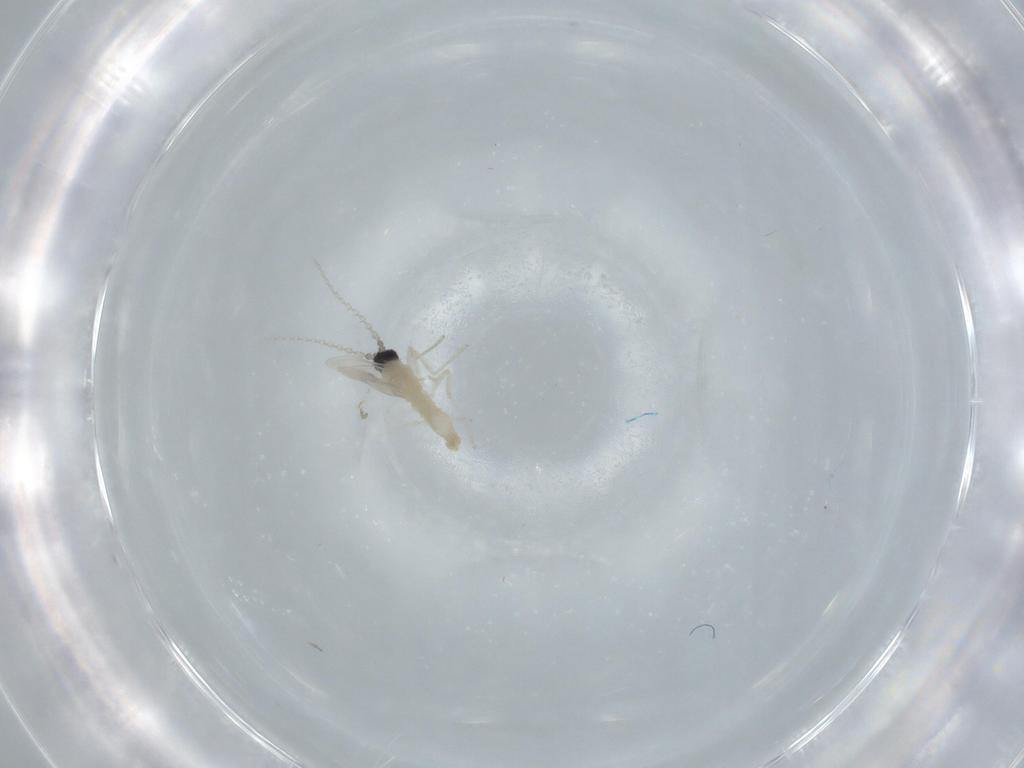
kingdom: Animalia
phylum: Arthropoda
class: Insecta
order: Diptera
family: Cecidomyiidae
